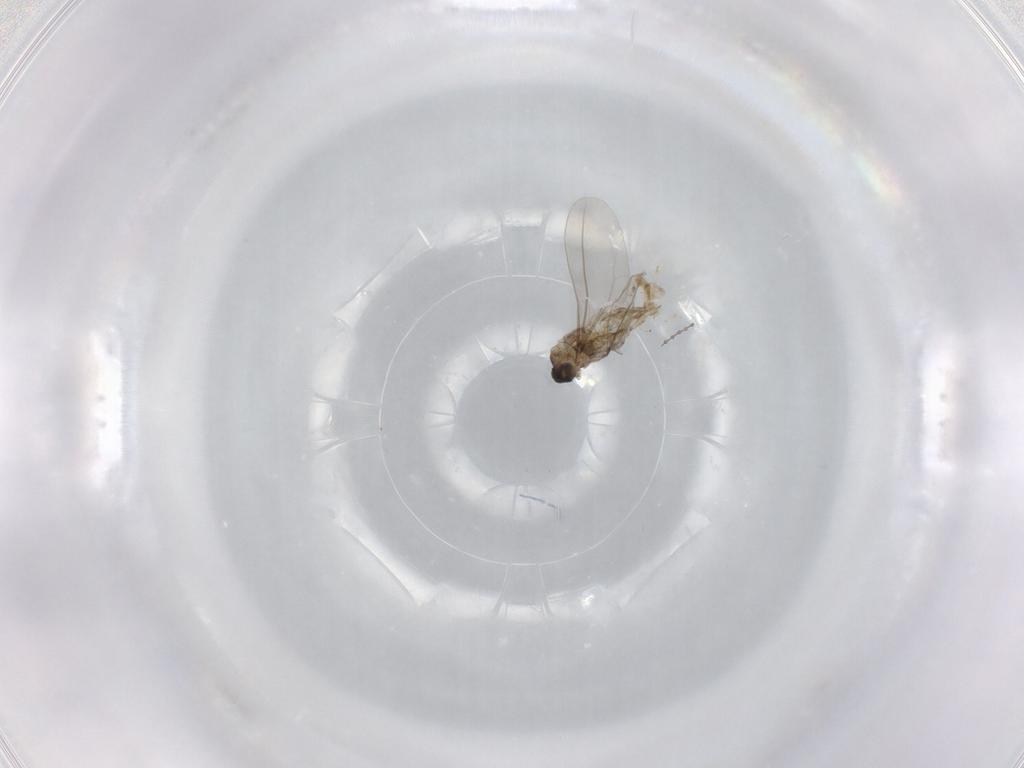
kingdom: Animalia
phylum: Arthropoda
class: Insecta
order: Diptera
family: Cecidomyiidae
